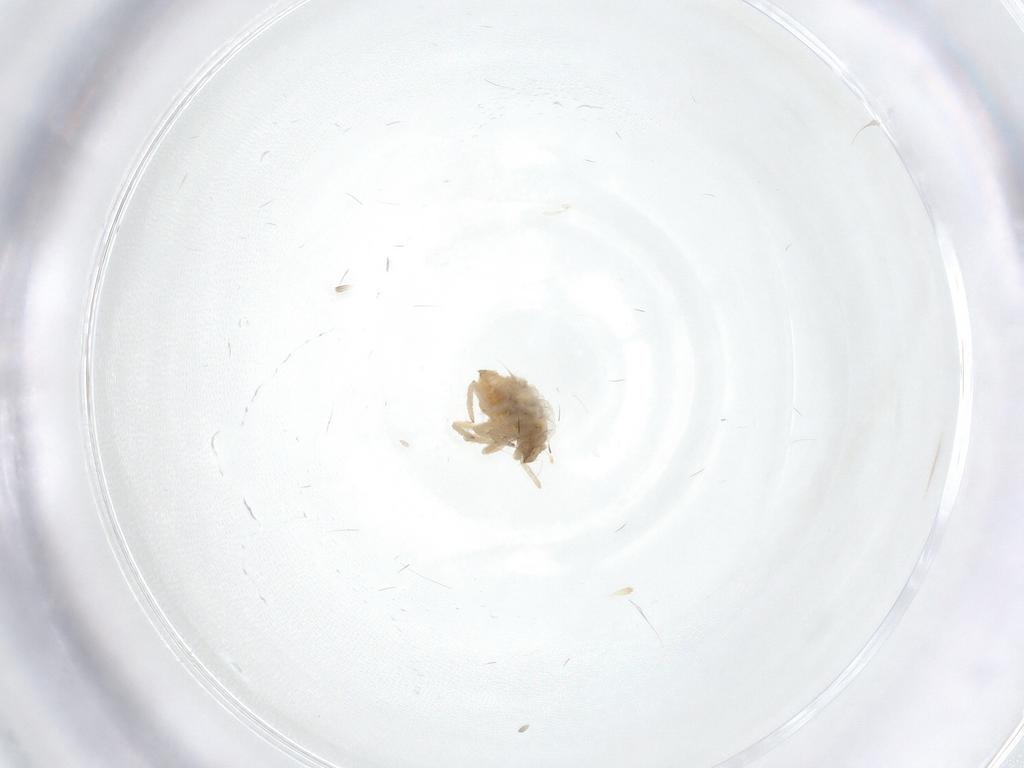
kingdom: Animalia
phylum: Arthropoda
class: Insecta
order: Neuroptera
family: Coniopterygidae
